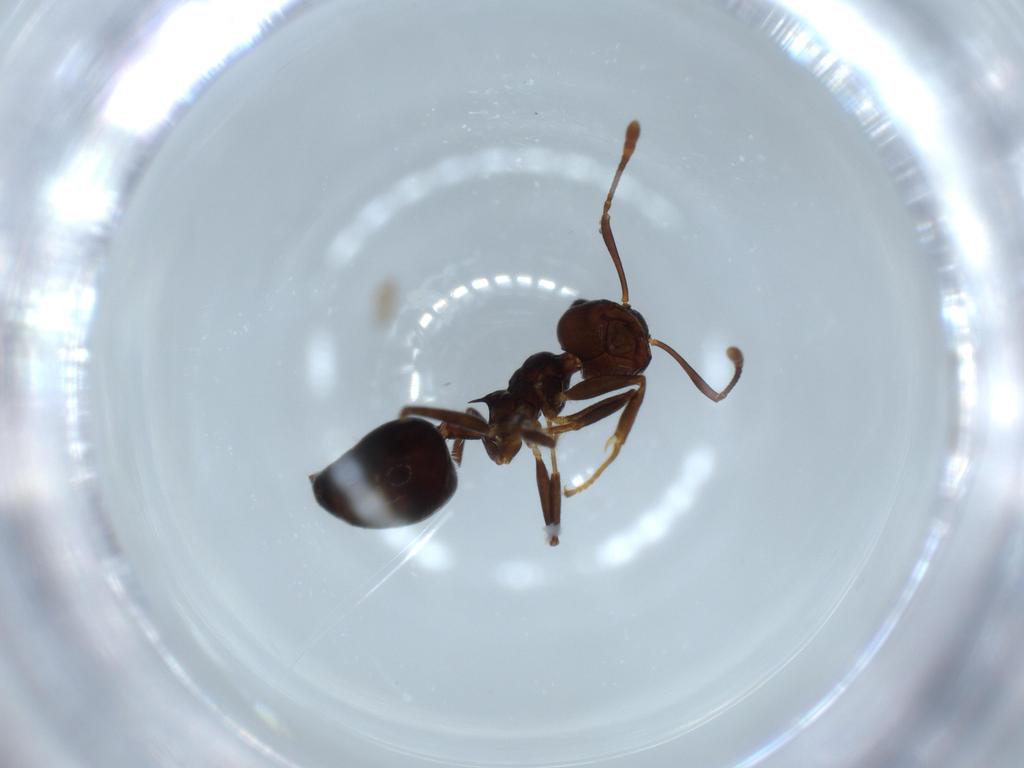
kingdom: Animalia
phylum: Arthropoda
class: Insecta
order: Hymenoptera
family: Formicidae
